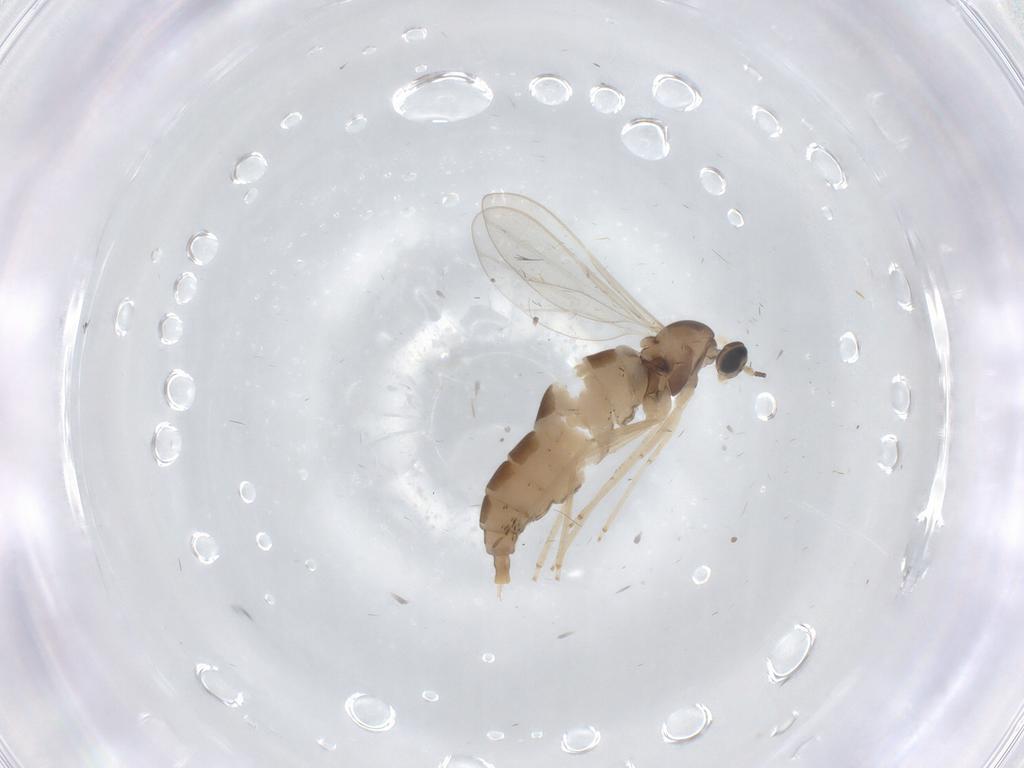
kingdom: Animalia
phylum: Arthropoda
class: Insecta
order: Diptera
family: Cecidomyiidae
